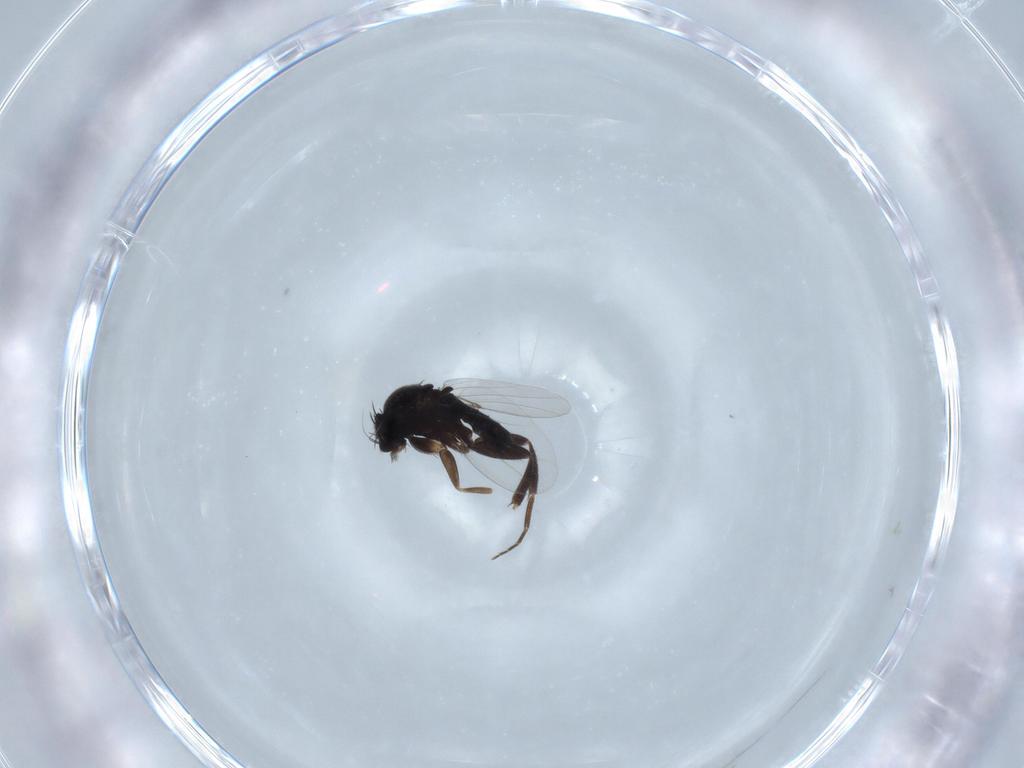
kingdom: Animalia
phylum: Arthropoda
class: Insecta
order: Diptera
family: Phoridae
